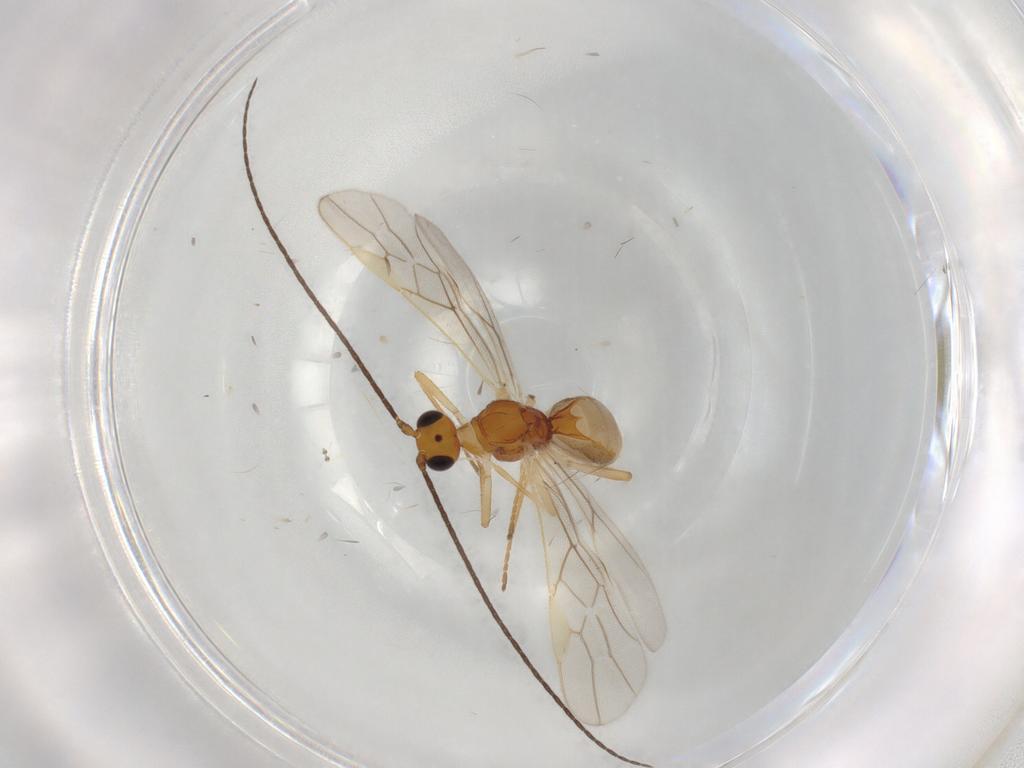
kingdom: Animalia
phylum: Arthropoda
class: Insecta
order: Hymenoptera
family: Braconidae
